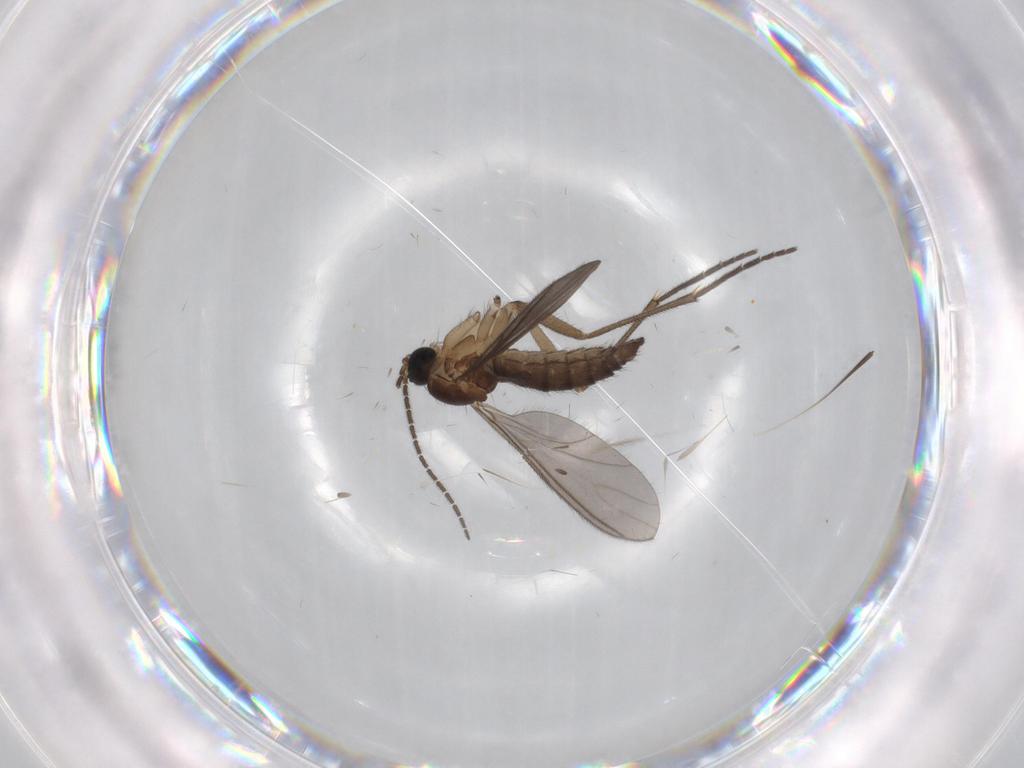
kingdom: Animalia
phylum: Arthropoda
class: Insecta
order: Diptera
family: Sciaridae
